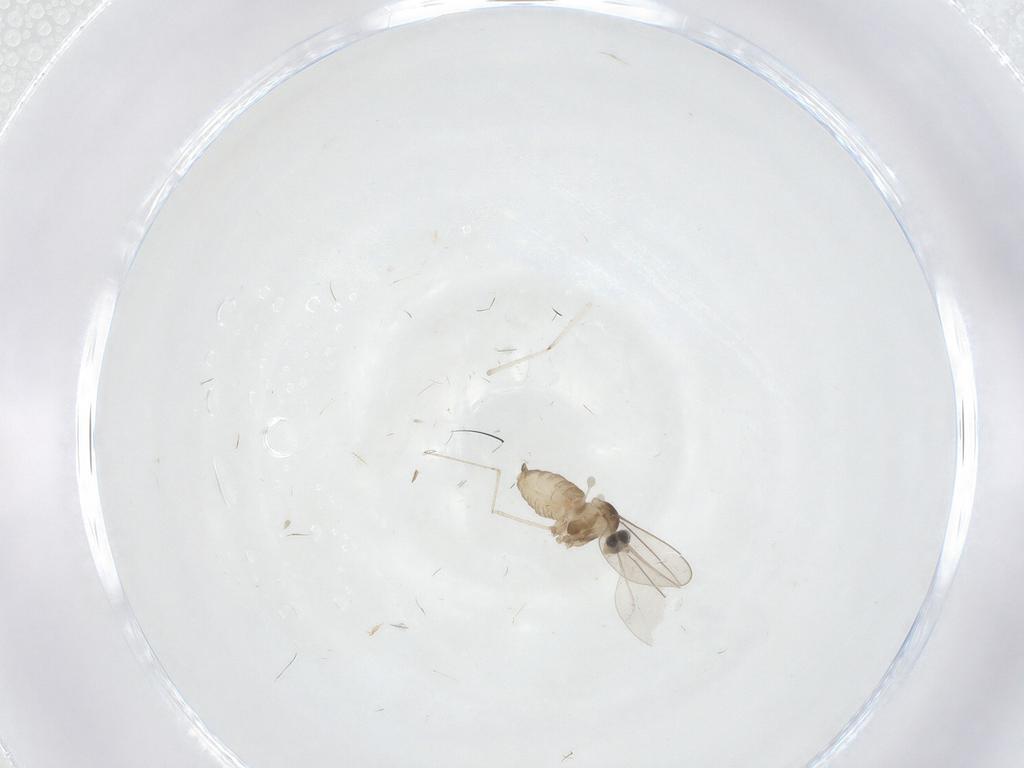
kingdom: Animalia
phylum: Arthropoda
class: Insecta
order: Diptera
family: Cecidomyiidae
